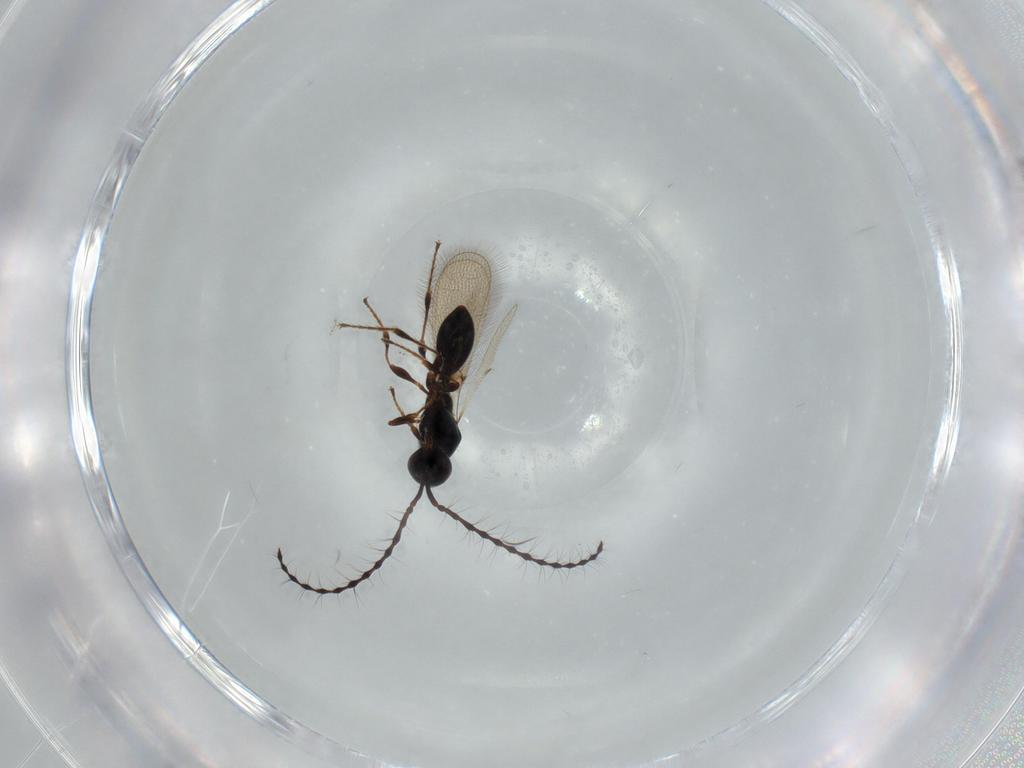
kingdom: Animalia
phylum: Arthropoda
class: Insecta
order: Hymenoptera
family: Diapriidae
